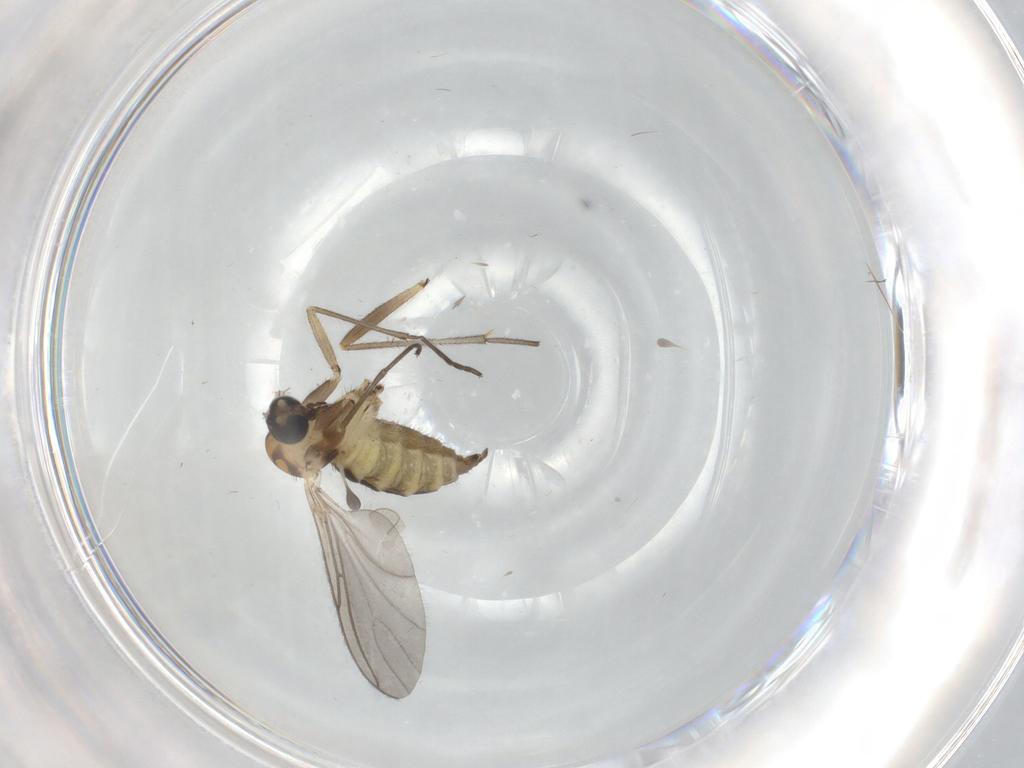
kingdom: Animalia
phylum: Arthropoda
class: Insecta
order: Diptera
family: Sciaridae
